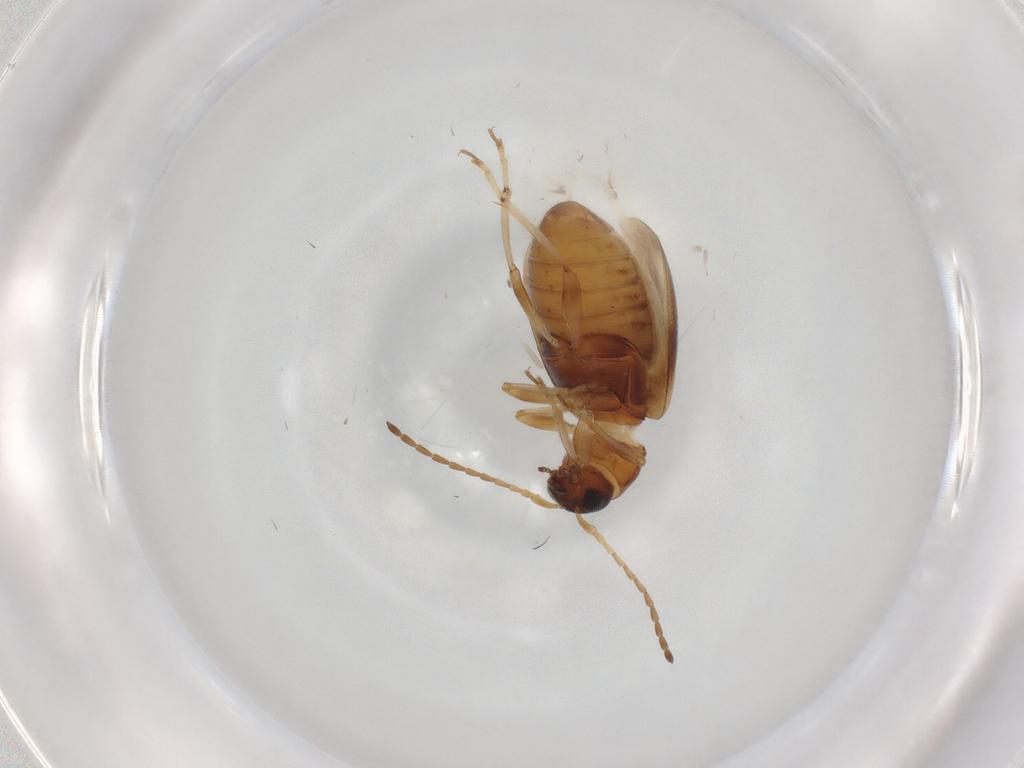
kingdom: Animalia
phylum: Arthropoda
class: Insecta
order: Coleoptera
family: Chrysomelidae
